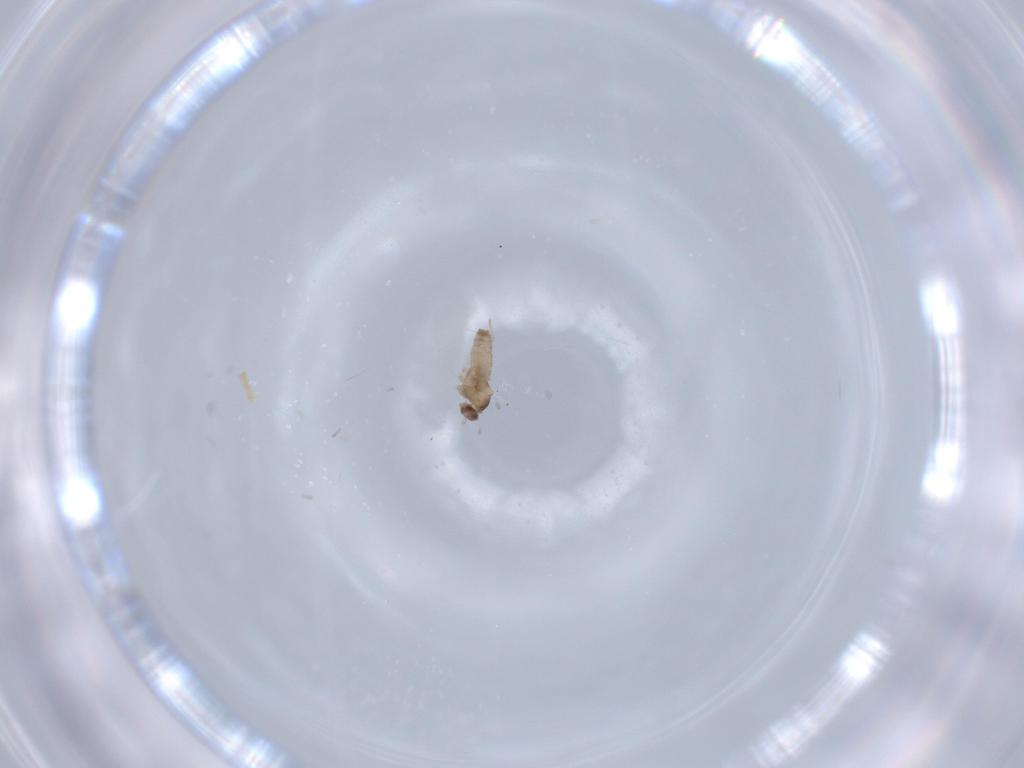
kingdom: Animalia
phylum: Arthropoda
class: Insecta
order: Diptera
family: Cecidomyiidae
